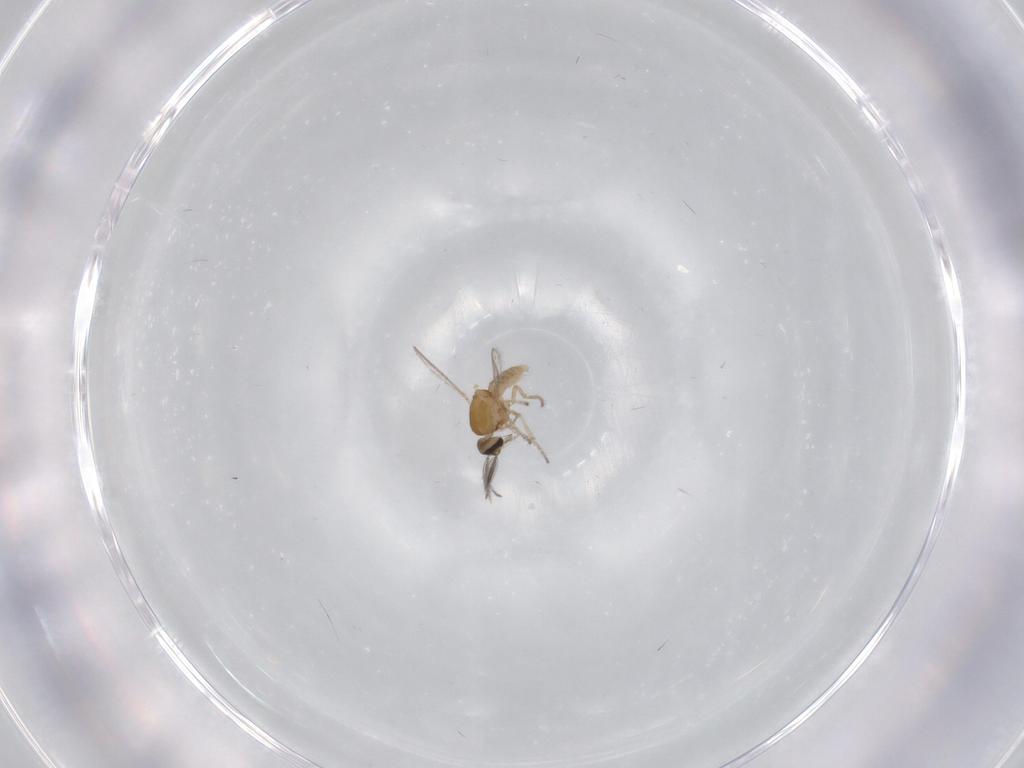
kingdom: Animalia
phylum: Arthropoda
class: Insecta
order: Diptera
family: Ceratopogonidae
